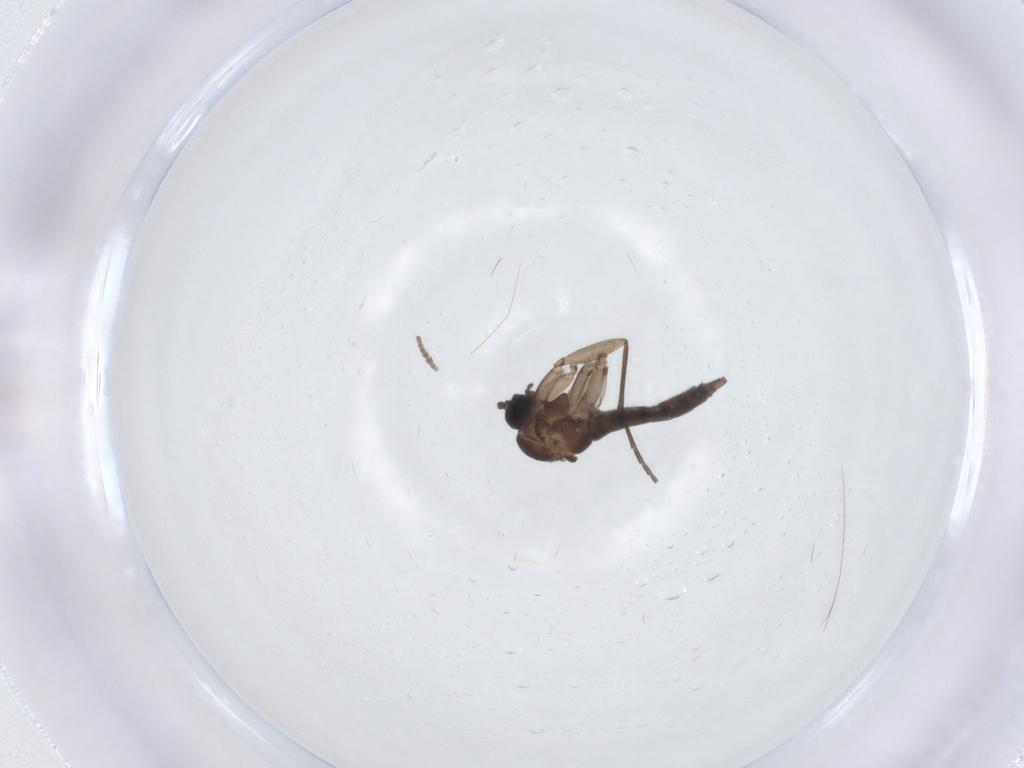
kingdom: Animalia
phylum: Arthropoda
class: Insecta
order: Diptera
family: Sciaridae
